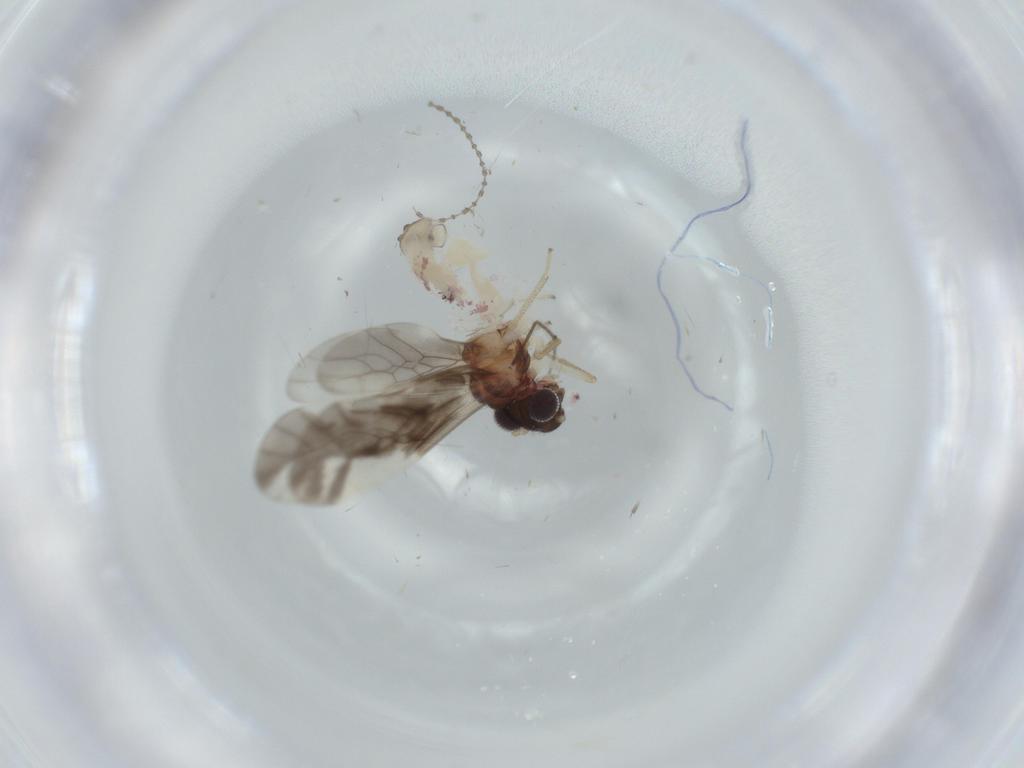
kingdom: Animalia
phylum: Arthropoda
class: Insecta
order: Psocodea
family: Caeciliusidae
